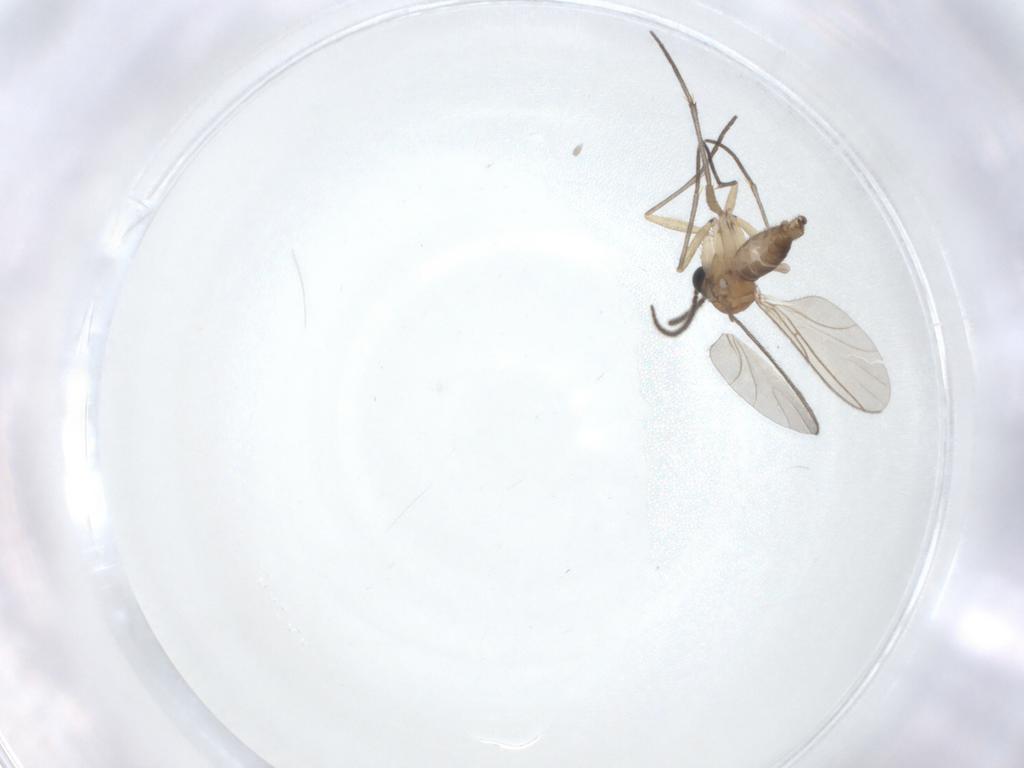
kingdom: Animalia
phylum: Arthropoda
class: Insecta
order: Diptera
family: Sciaridae
